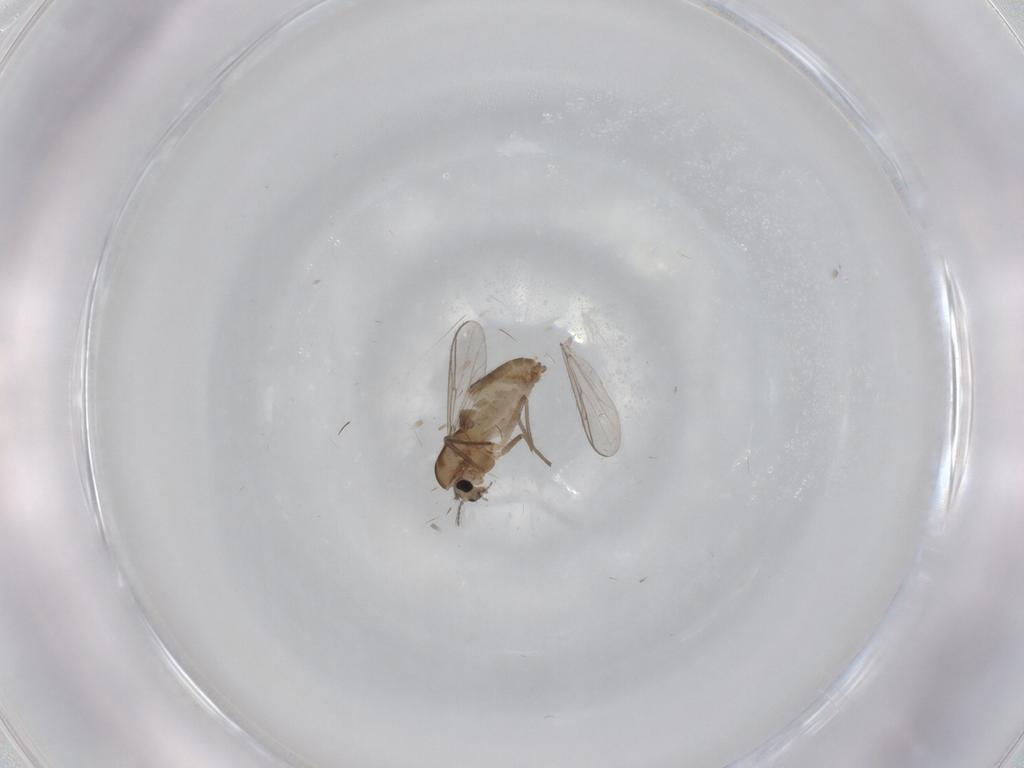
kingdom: Animalia
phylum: Arthropoda
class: Insecta
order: Diptera
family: Chironomidae
